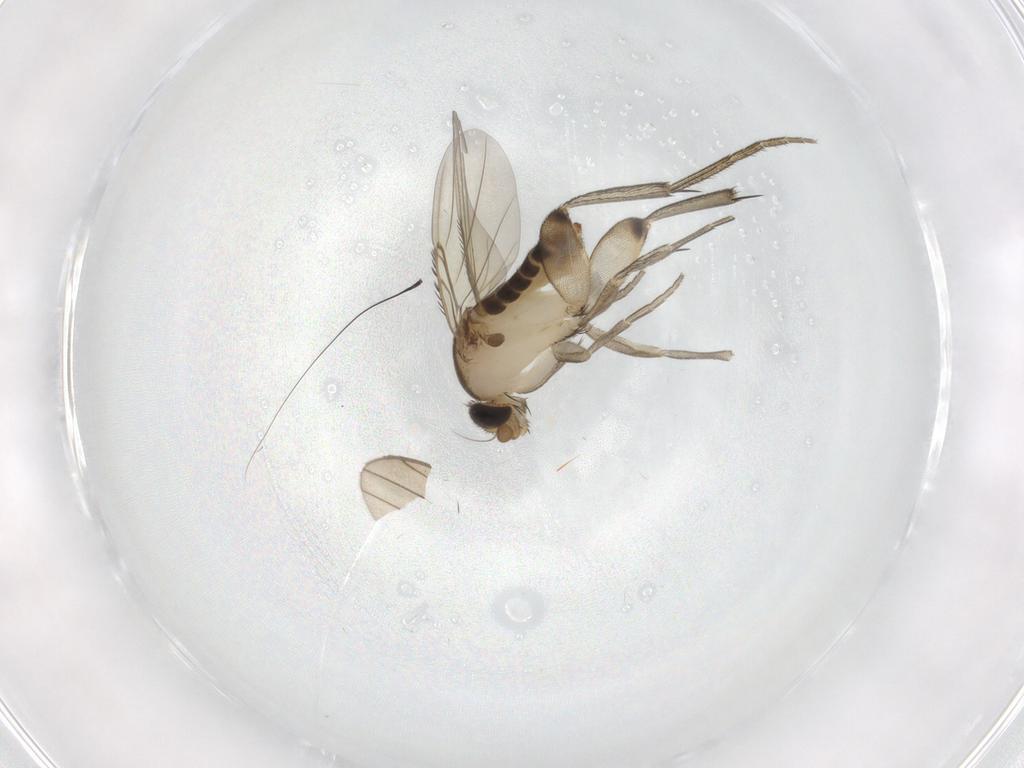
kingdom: Animalia
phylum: Arthropoda
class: Insecta
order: Diptera
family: Phoridae
